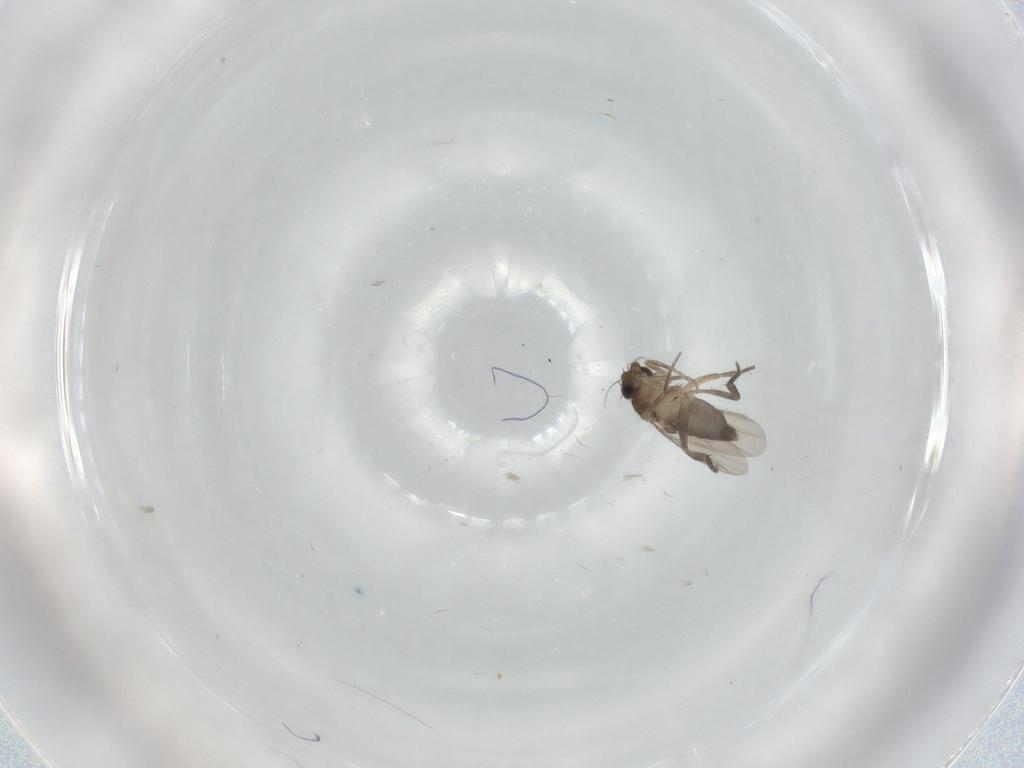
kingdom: Animalia
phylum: Arthropoda
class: Insecta
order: Diptera
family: Phoridae
